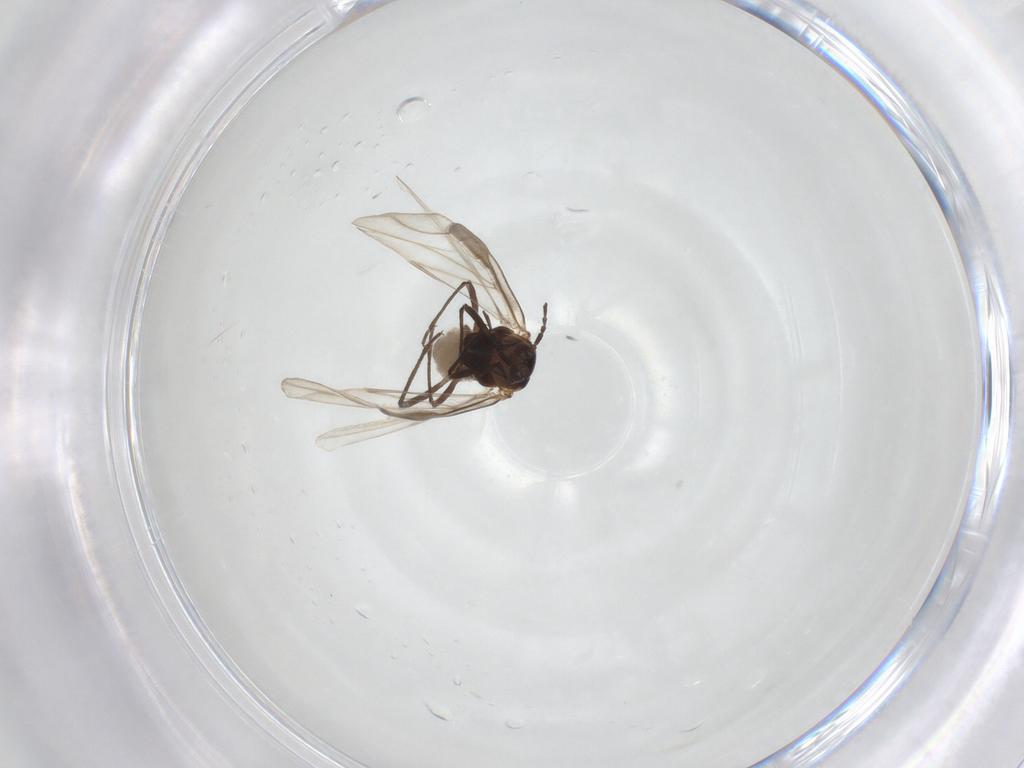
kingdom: Animalia
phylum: Arthropoda
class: Insecta
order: Hemiptera
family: Aphididae
